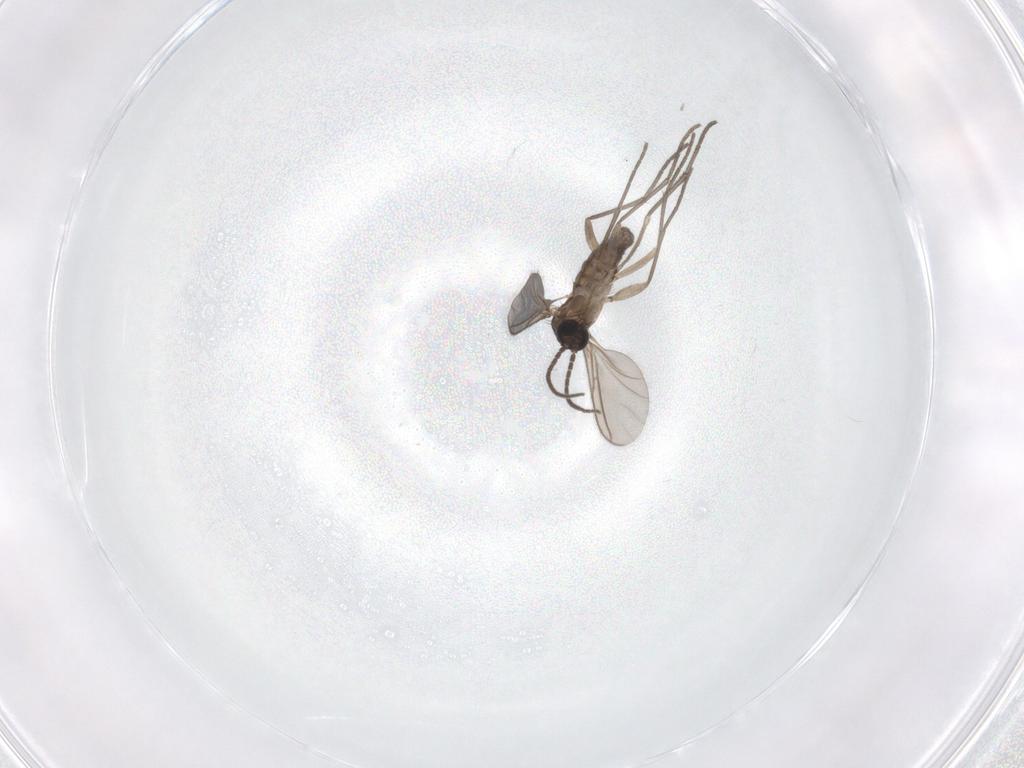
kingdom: Animalia
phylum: Arthropoda
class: Insecta
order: Diptera
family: Sciaridae
